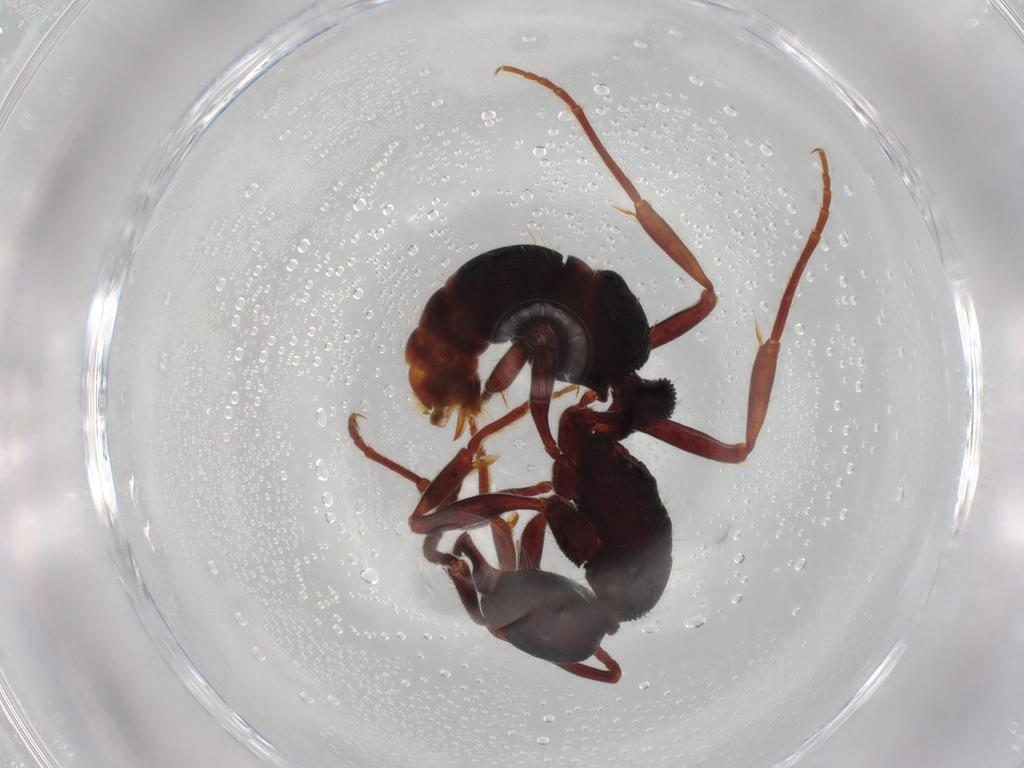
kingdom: Animalia
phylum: Arthropoda
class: Insecta
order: Hymenoptera
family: Formicidae
